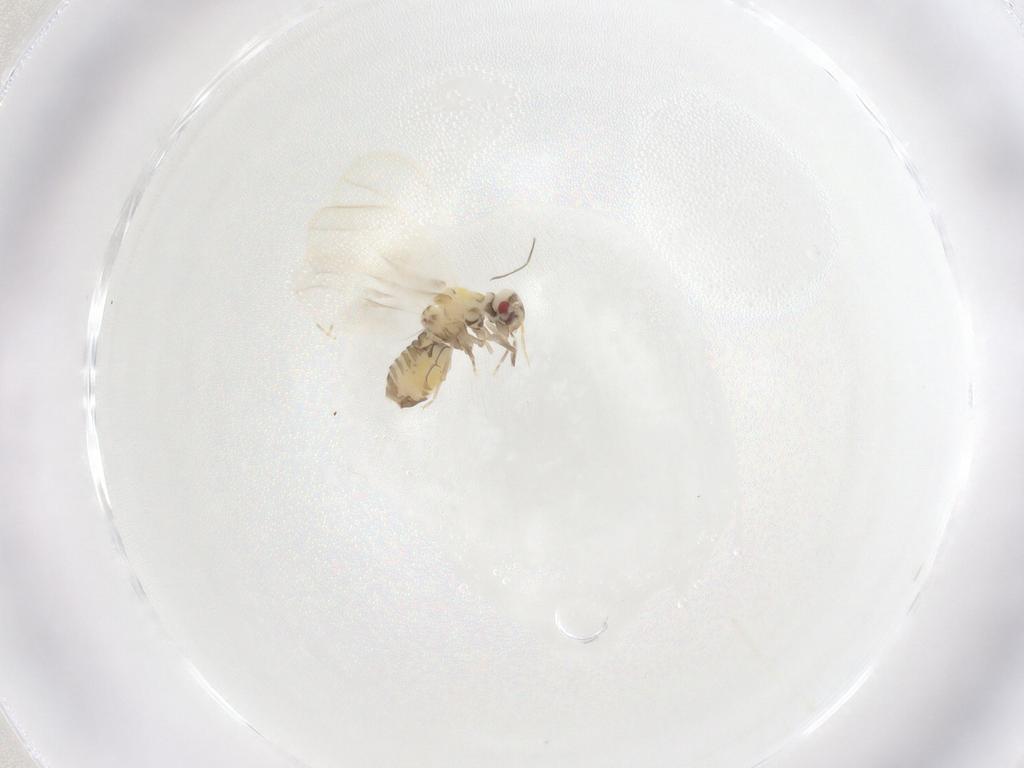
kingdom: Animalia
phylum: Arthropoda
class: Insecta
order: Hemiptera
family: Aleyrodidae
